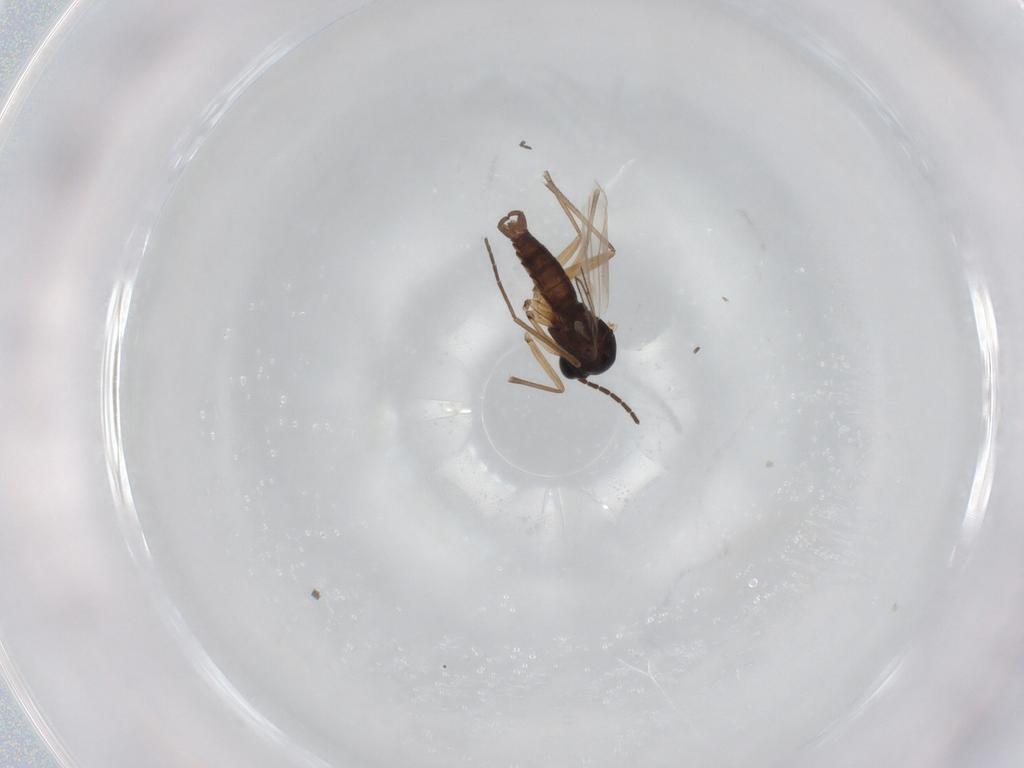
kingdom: Animalia
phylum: Arthropoda
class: Insecta
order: Diptera
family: Sciaridae
